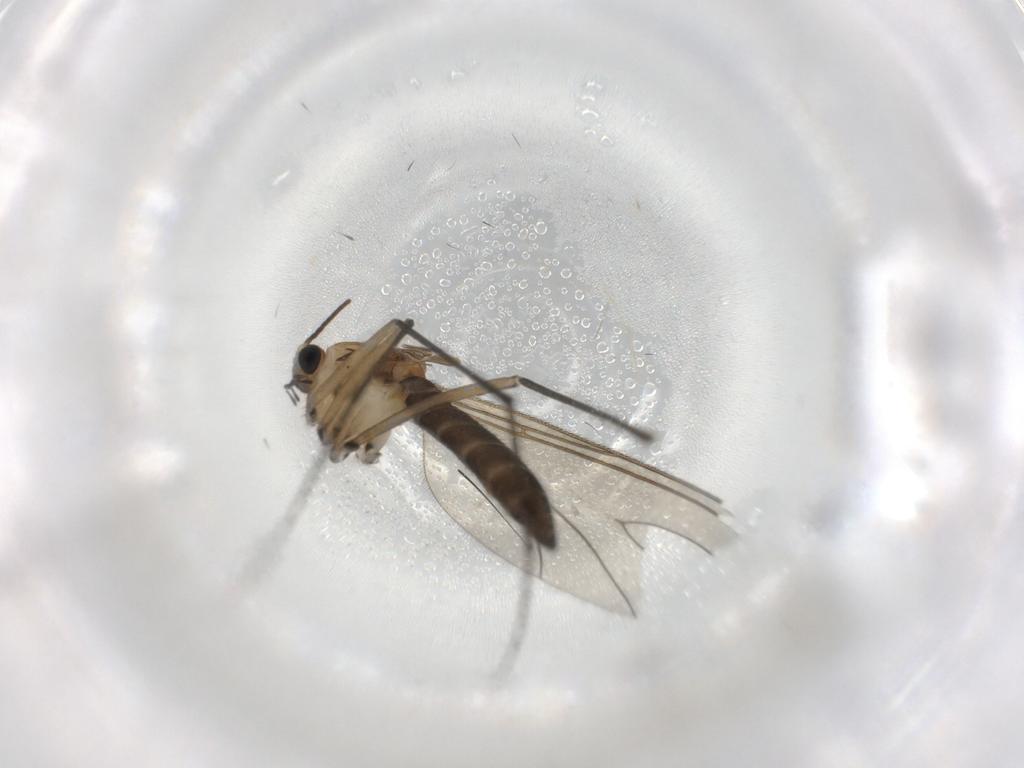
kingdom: Animalia
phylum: Arthropoda
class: Insecta
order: Diptera
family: Sciaridae
